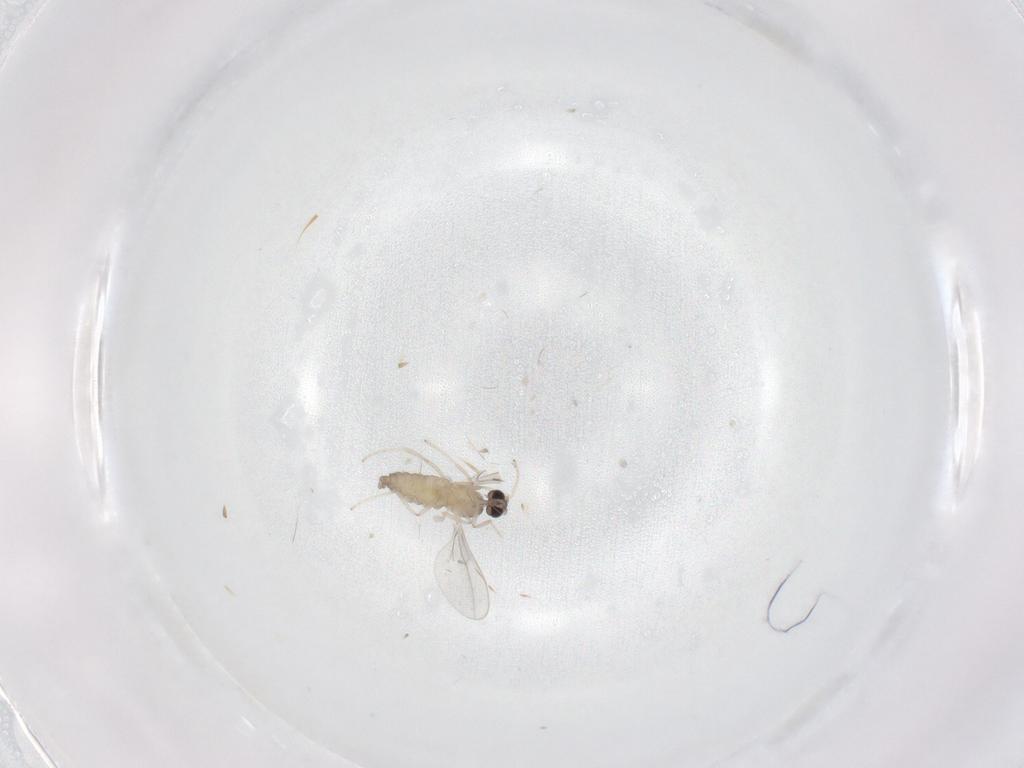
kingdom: Animalia
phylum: Arthropoda
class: Insecta
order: Diptera
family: Cecidomyiidae
